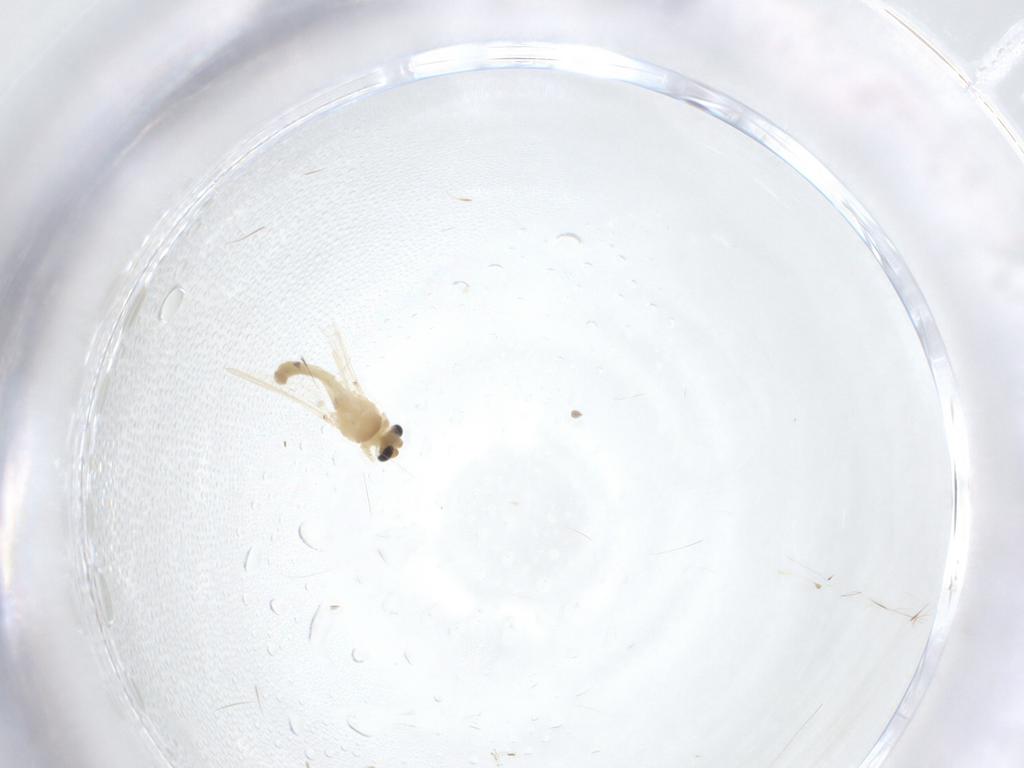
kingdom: Animalia
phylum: Arthropoda
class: Insecta
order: Diptera
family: Chironomidae
